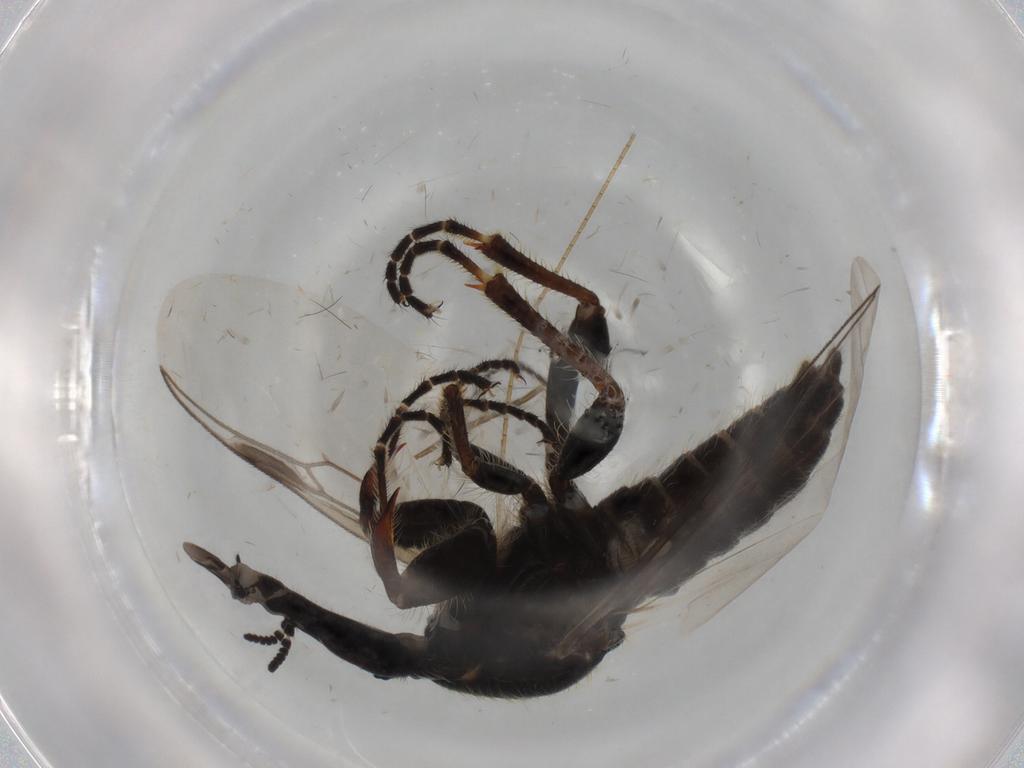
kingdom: Animalia
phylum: Arthropoda
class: Insecta
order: Diptera
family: Bibionidae
